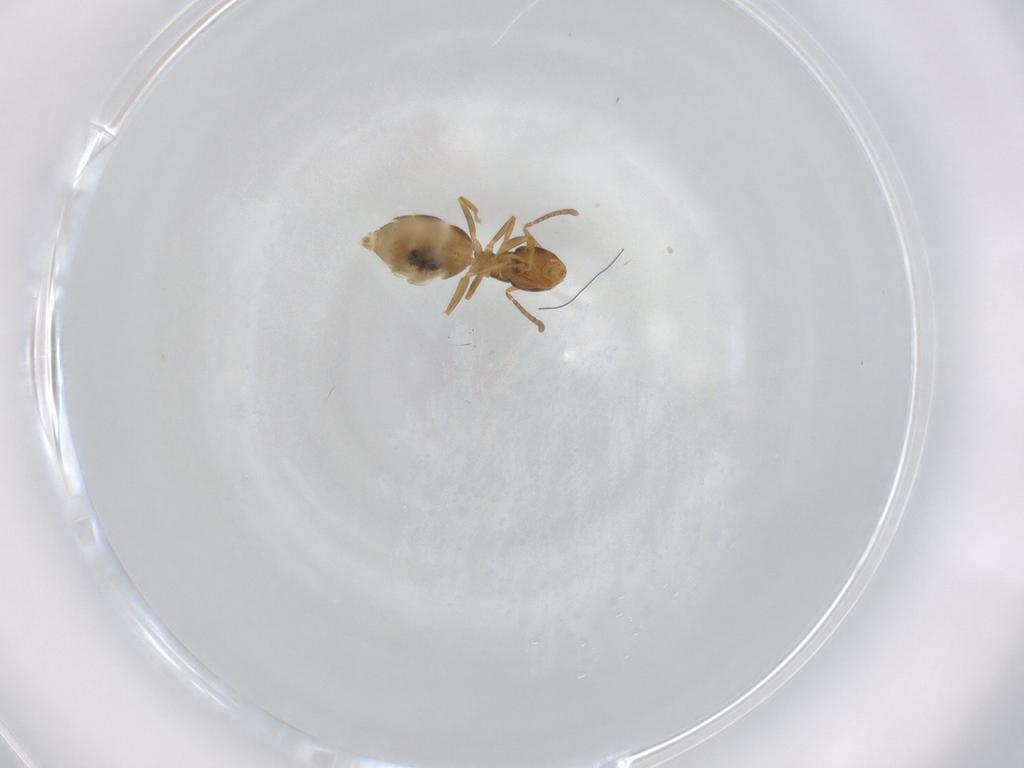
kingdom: Animalia
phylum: Arthropoda
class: Insecta
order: Hymenoptera
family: Formicidae
